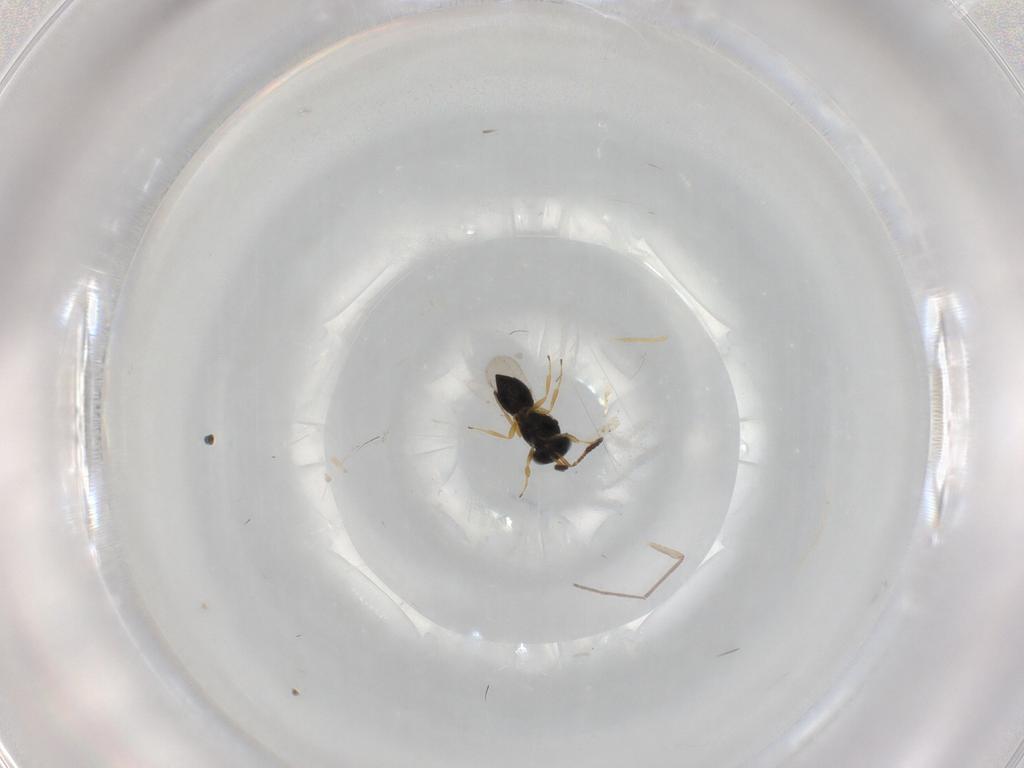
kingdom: Animalia
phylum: Arthropoda
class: Insecta
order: Hymenoptera
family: Scelionidae
